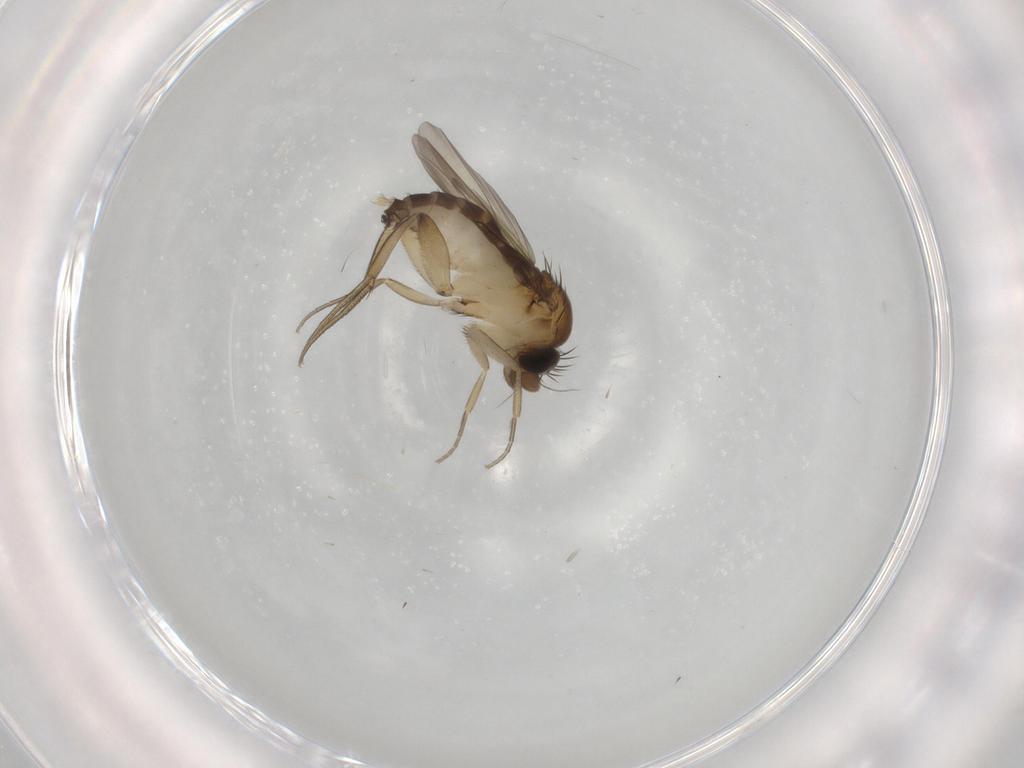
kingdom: Animalia
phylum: Arthropoda
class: Insecta
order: Diptera
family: Phoridae
